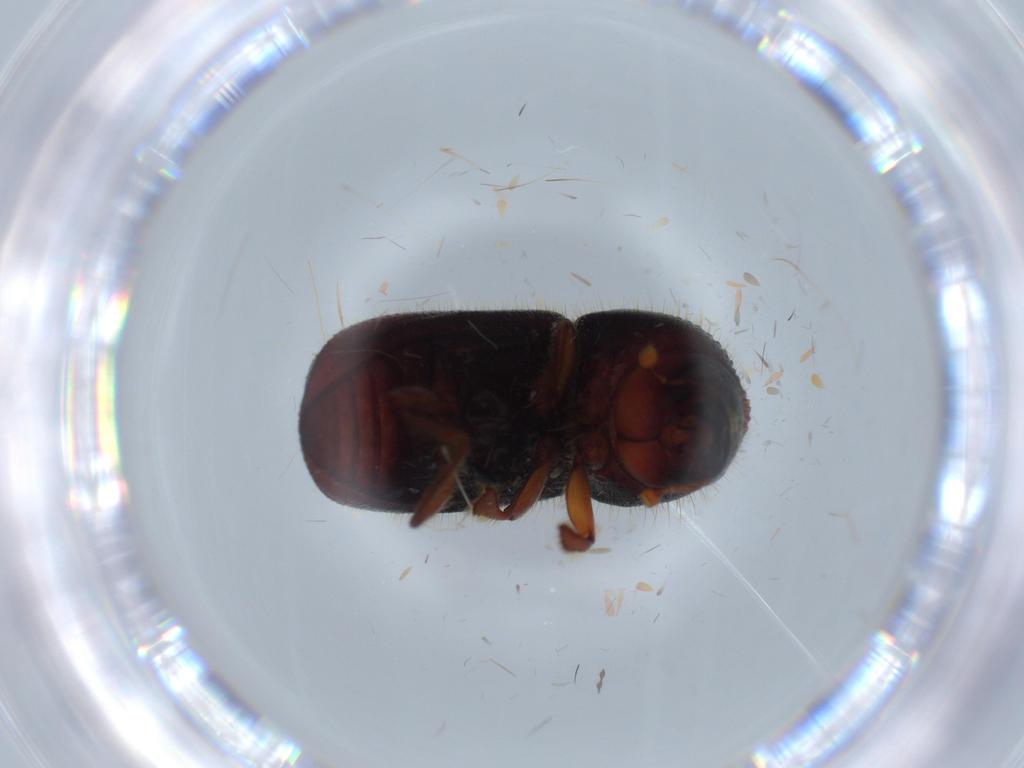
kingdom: Animalia
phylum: Arthropoda
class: Insecta
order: Coleoptera
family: Curculionidae
